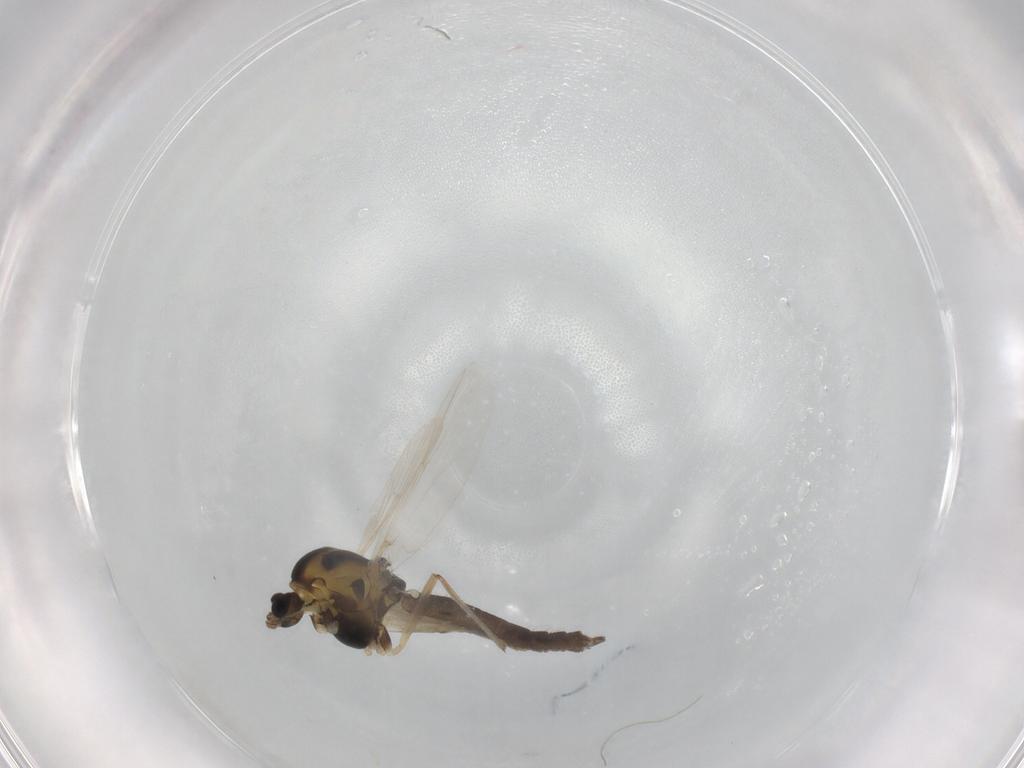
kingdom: Animalia
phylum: Arthropoda
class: Insecta
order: Diptera
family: Chironomidae
